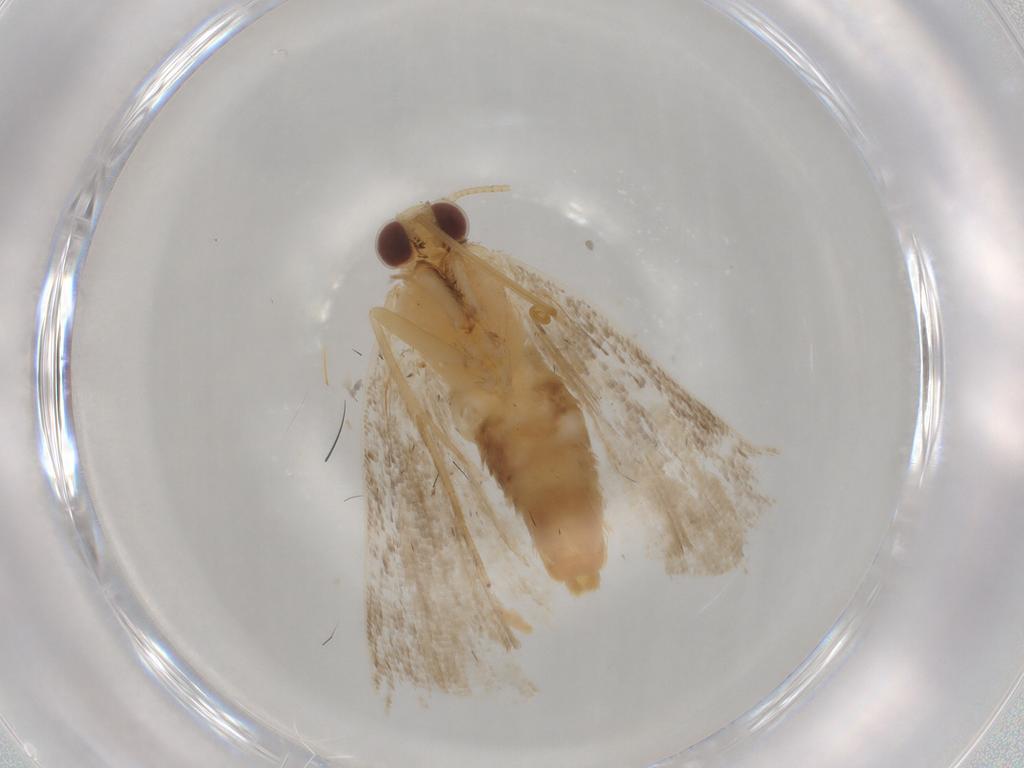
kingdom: Animalia
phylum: Arthropoda
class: Insecta
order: Lepidoptera
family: Erebidae
